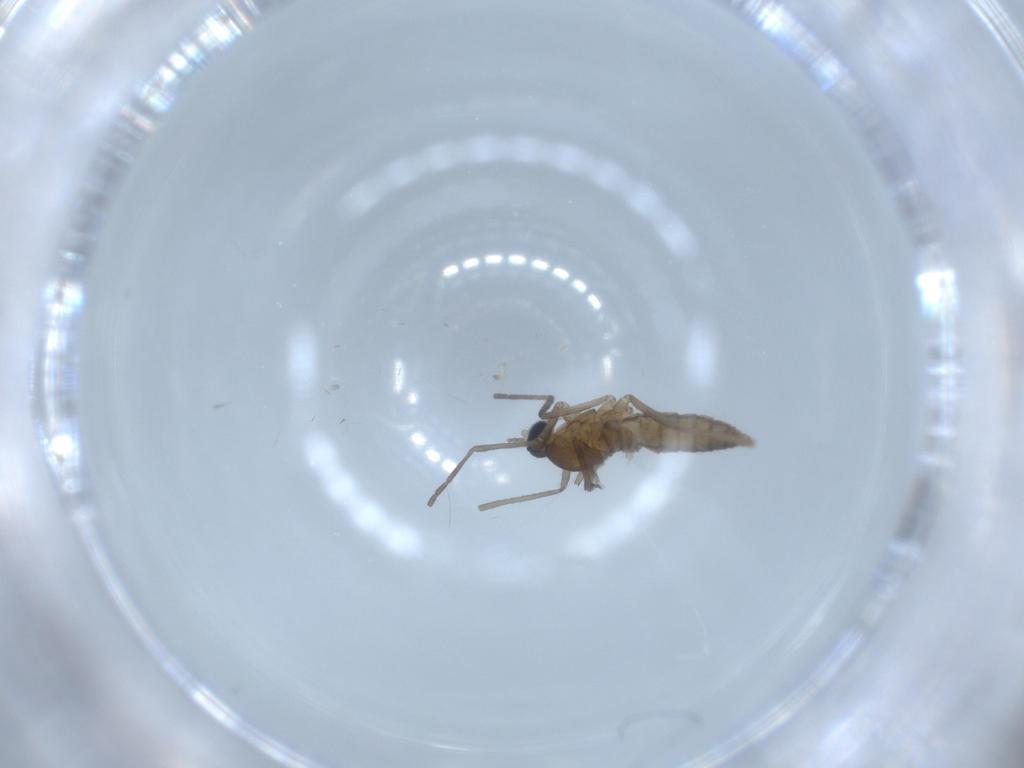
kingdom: Animalia
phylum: Arthropoda
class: Insecta
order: Diptera
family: Cecidomyiidae
